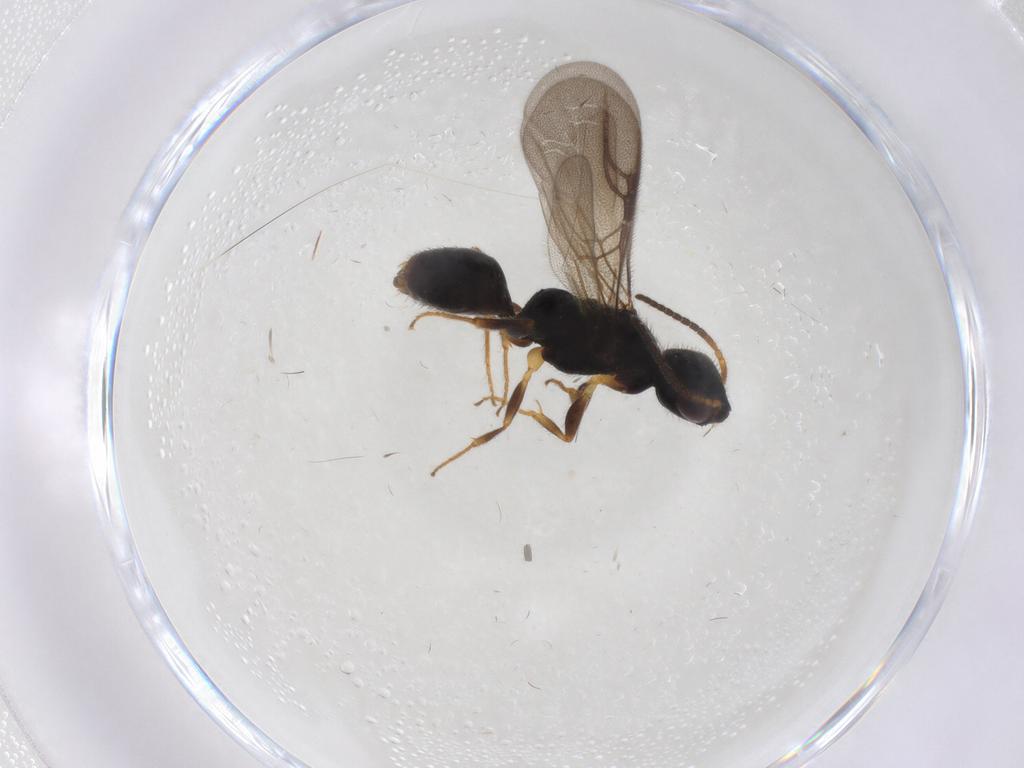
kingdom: Animalia
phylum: Arthropoda
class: Insecta
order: Hymenoptera
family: Bethylidae
